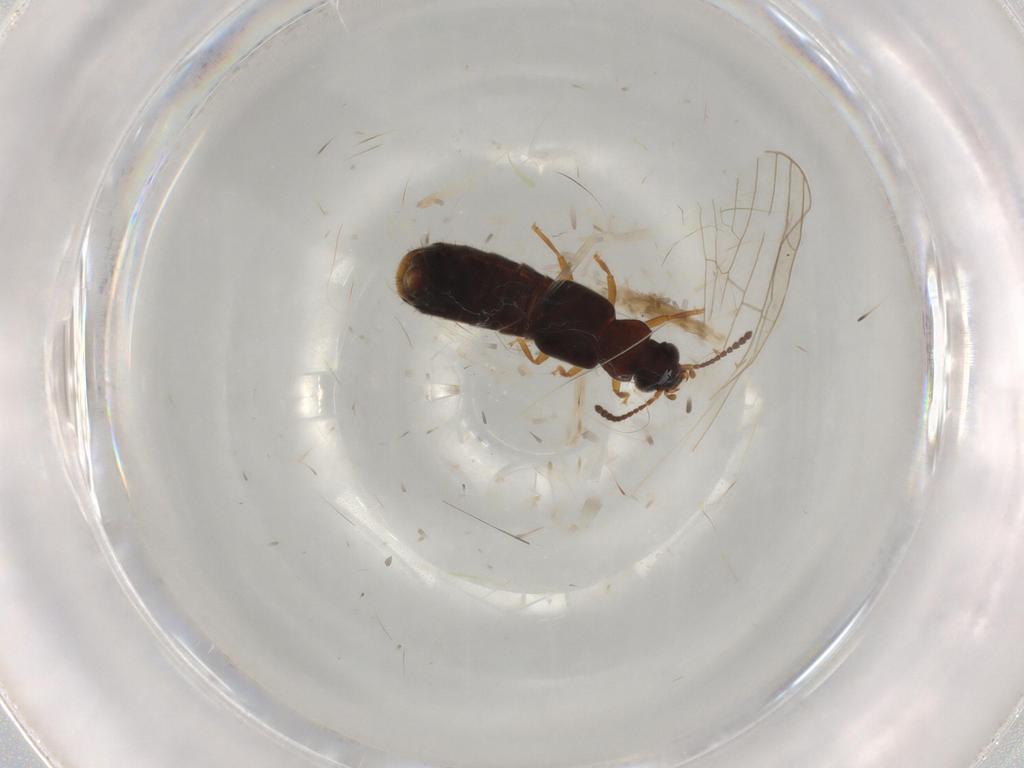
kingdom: Animalia
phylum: Arthropoda
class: Insecta
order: Coleoptera
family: Staphylinidae
